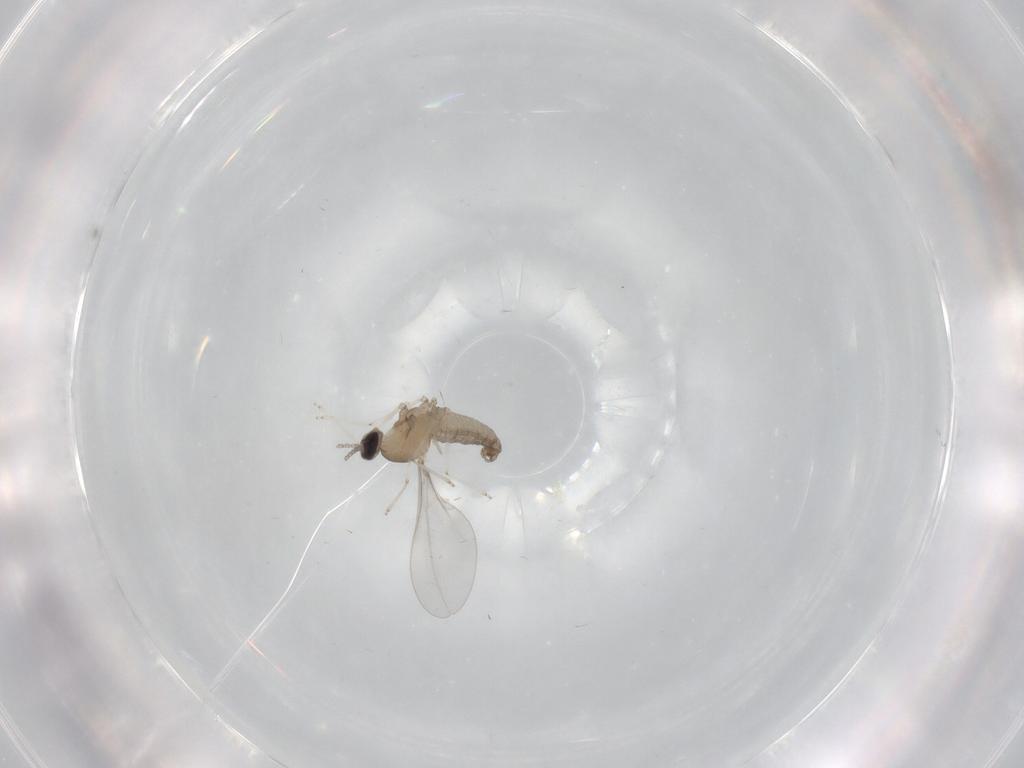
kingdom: Animalia
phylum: Arthropoda
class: Insecta
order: Diptera
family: Cecidomyiidae
